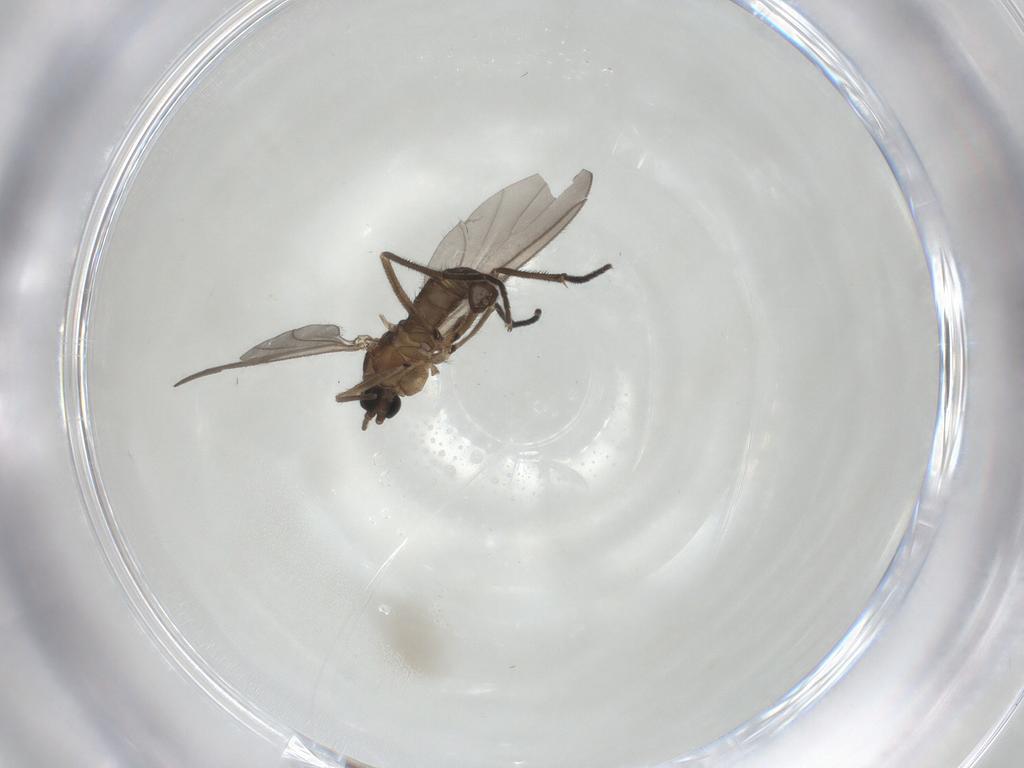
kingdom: Animalia
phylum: Arthropoda
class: Insecta
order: Diptera
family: Sciaridae
